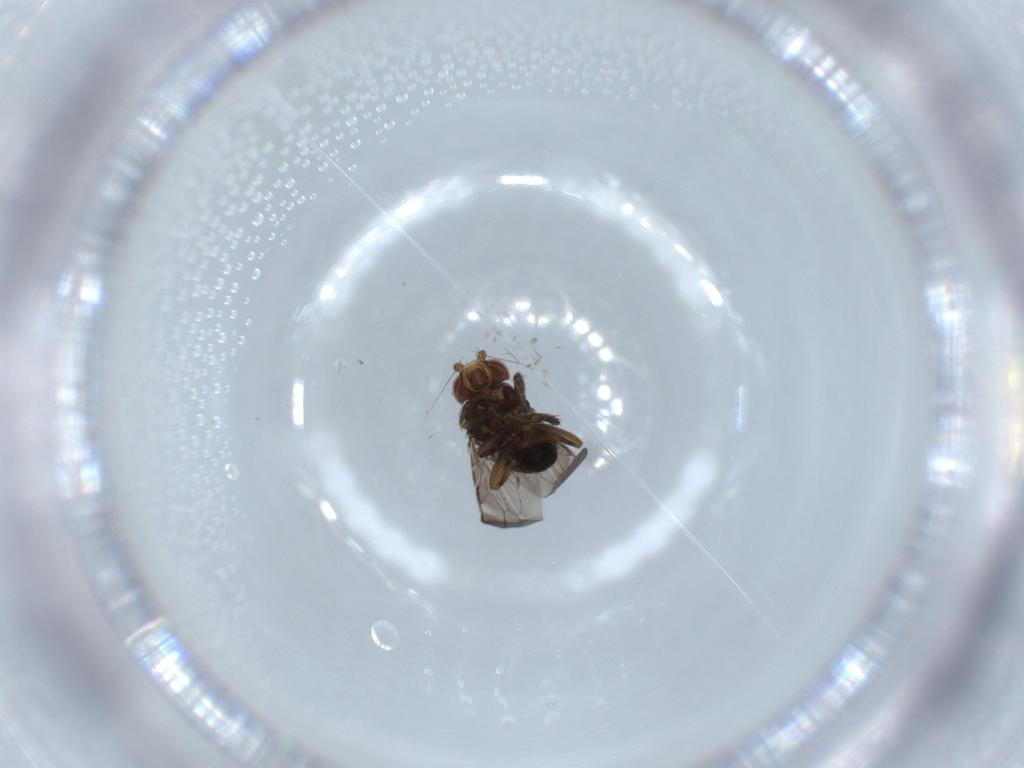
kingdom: Animalia
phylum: Arthropoda
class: Insecta
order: Diptera
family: Sphaeroceridae
